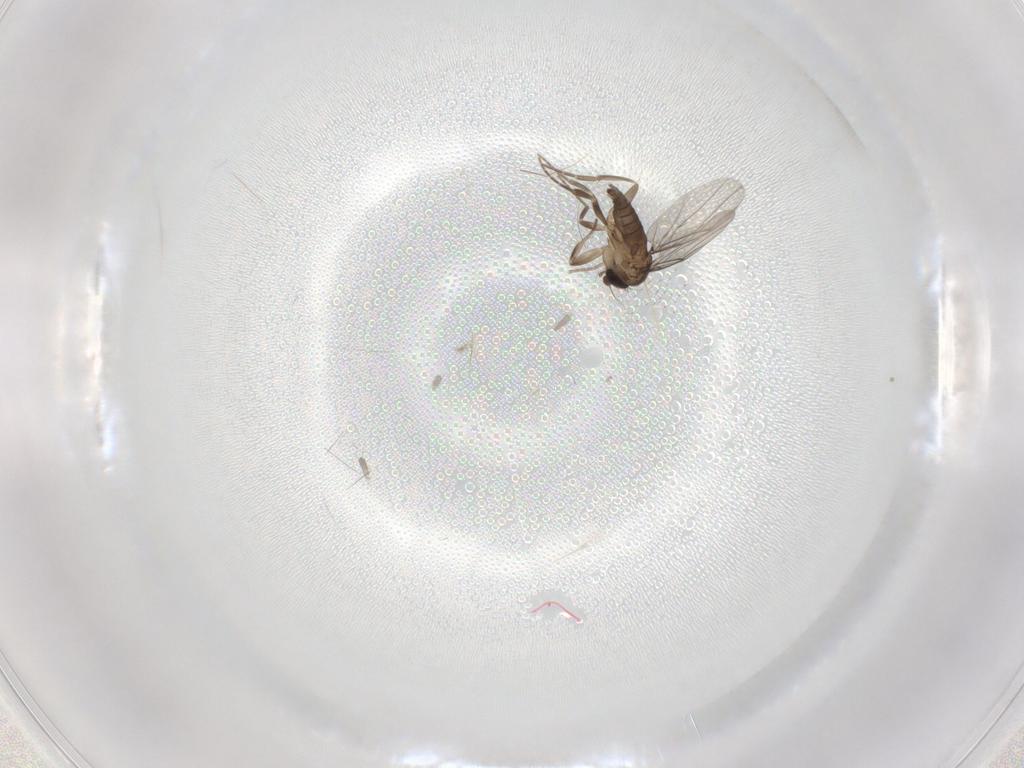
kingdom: Animalia
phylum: Arthropoda
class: Insecta
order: Diptera
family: Phoridae
